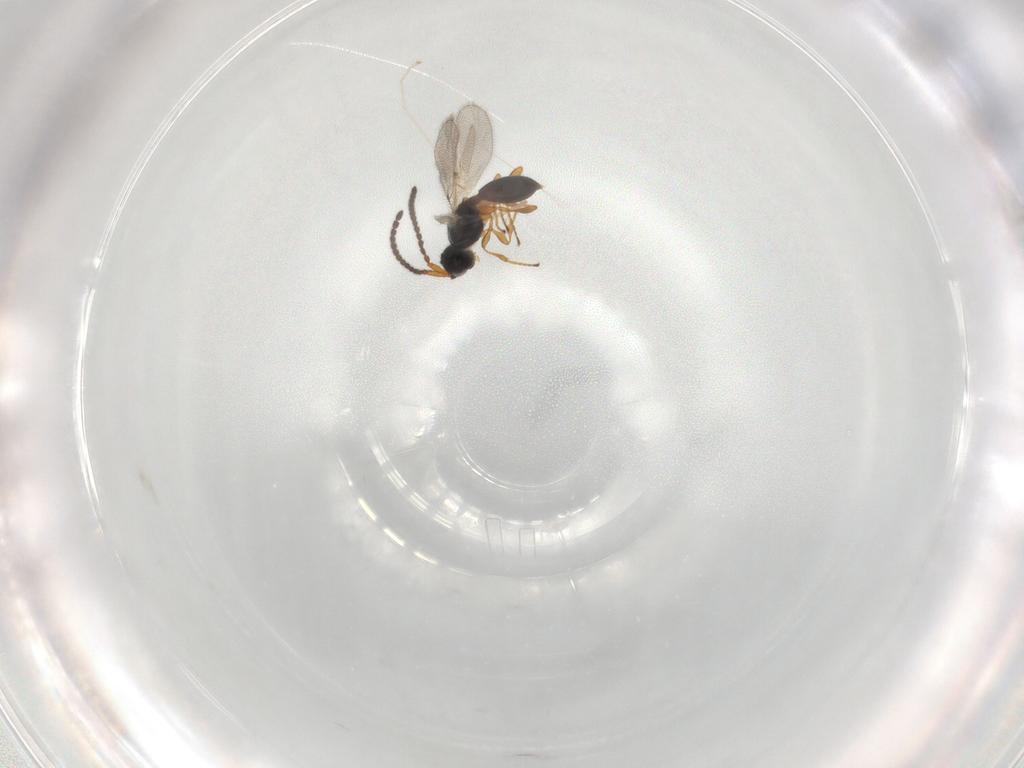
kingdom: Animalia
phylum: Arthropoda
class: Insecta
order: Hymenoptera
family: Diapriidae
